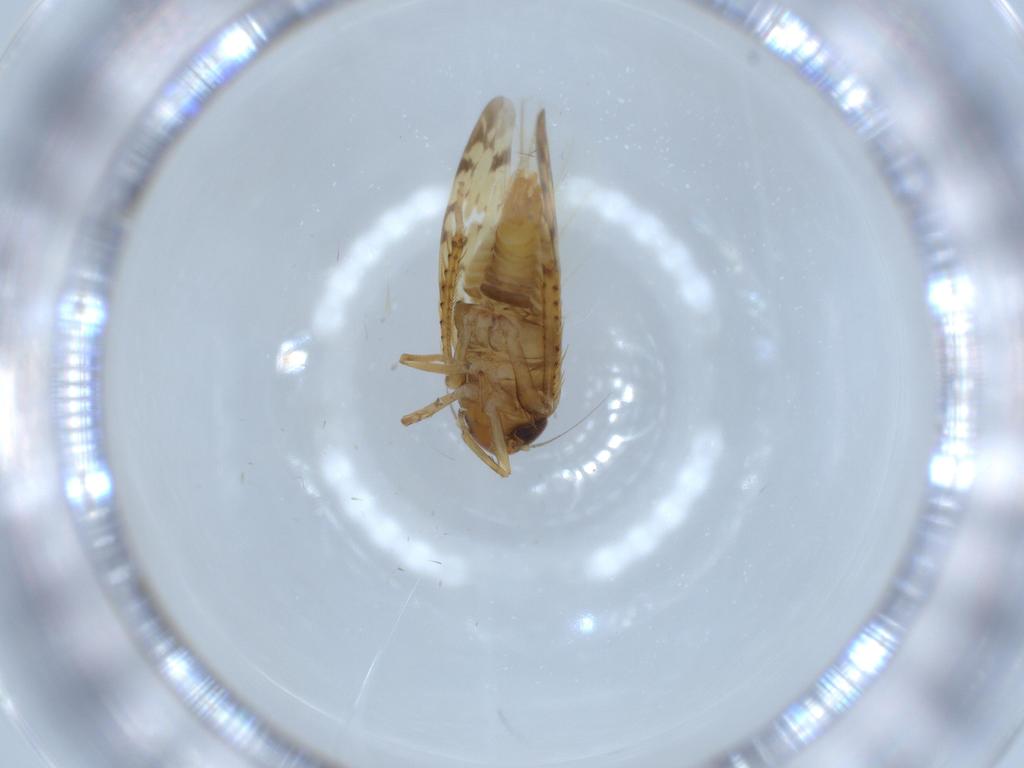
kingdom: Animalia
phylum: Arthropoda
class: Insecta
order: Hemiptera
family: Cicadellidae
